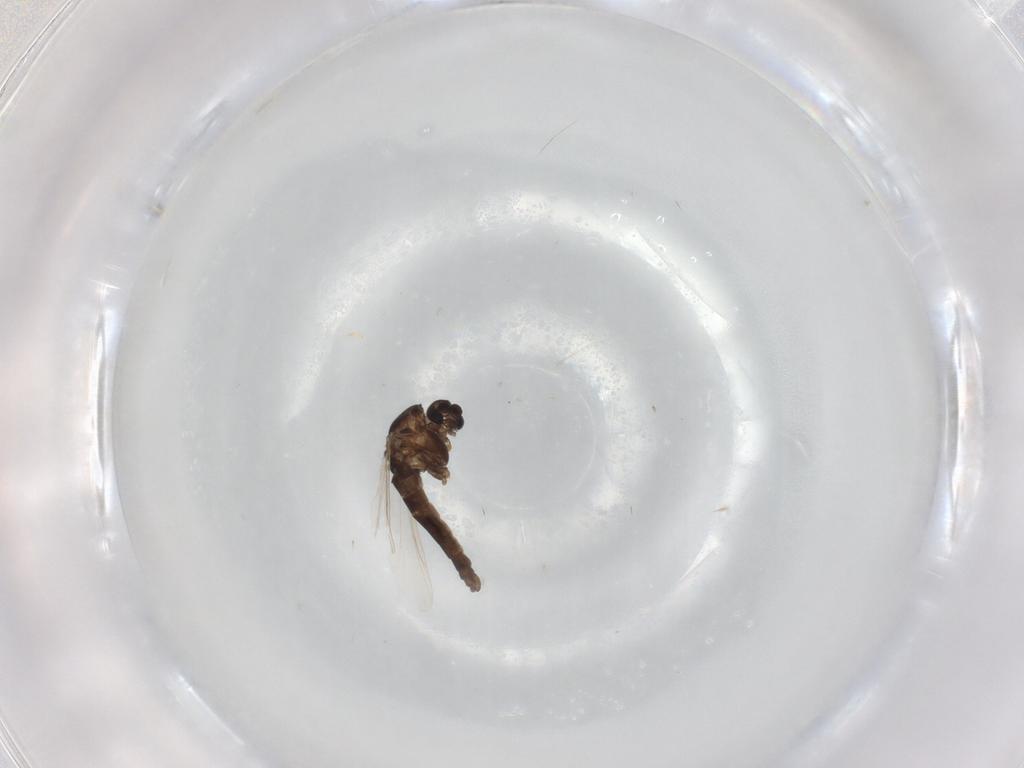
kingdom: Animalia
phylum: Arthropoda
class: Insecta
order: Diptera
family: Chironomidae
